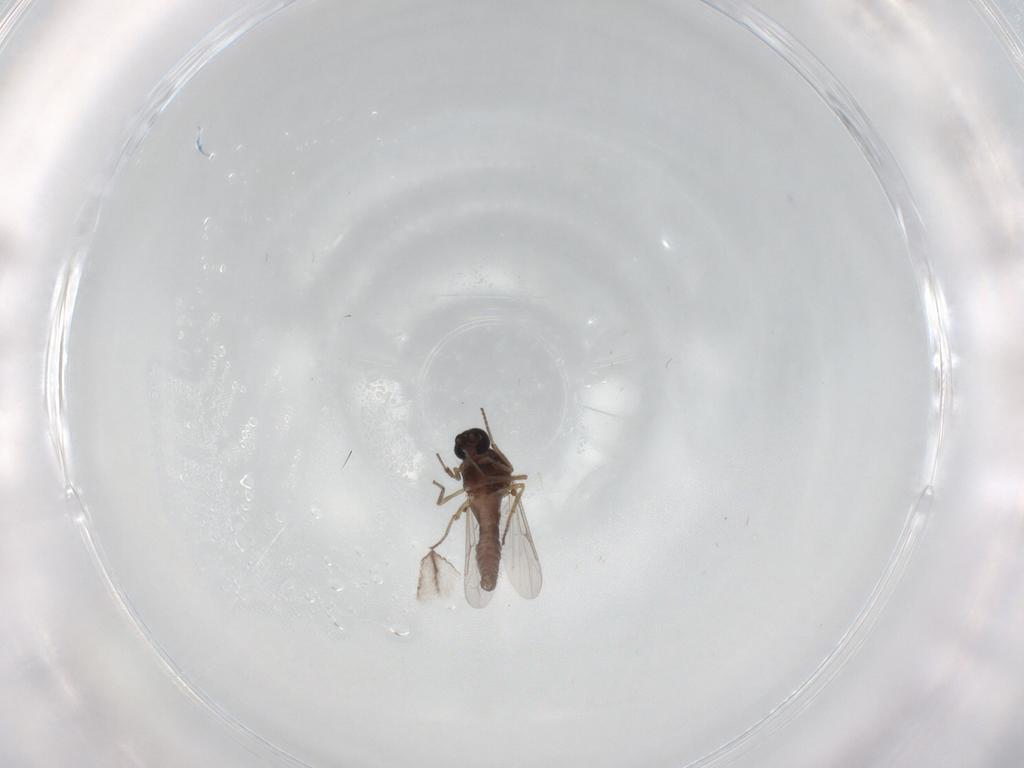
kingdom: Animalia
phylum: Arthropoda
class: Insecta
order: Diptera
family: Ceratopogonidae
